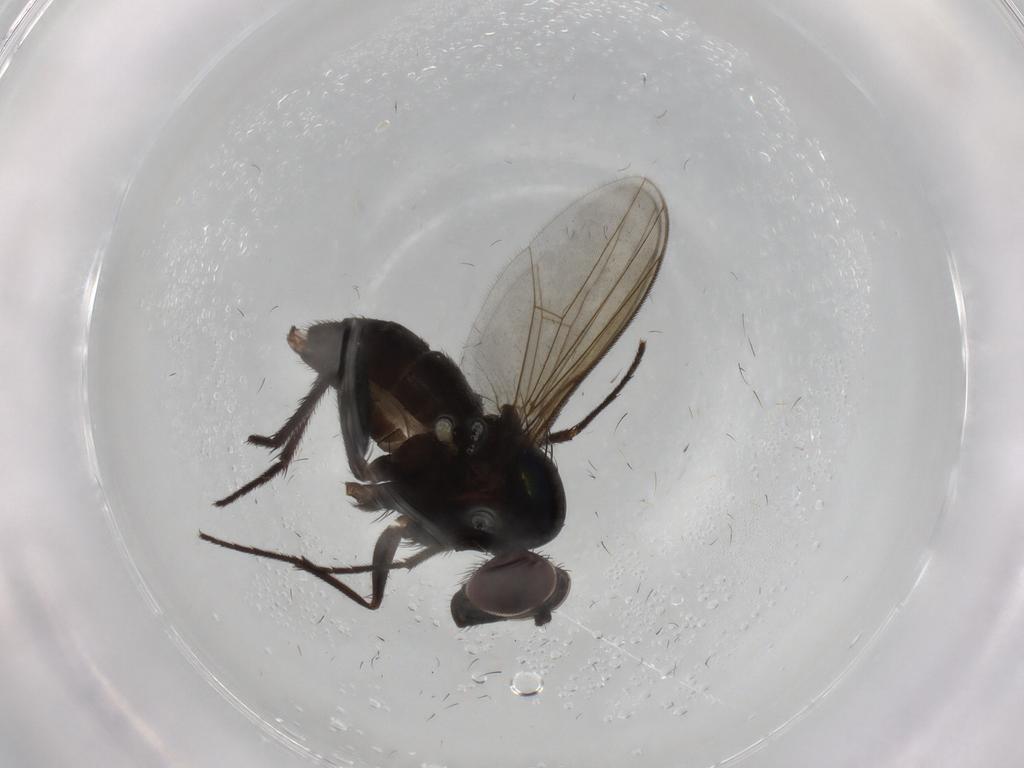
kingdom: Animalia
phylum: Arthropoda
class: Insecta
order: Diptera
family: Dolichopodidae
